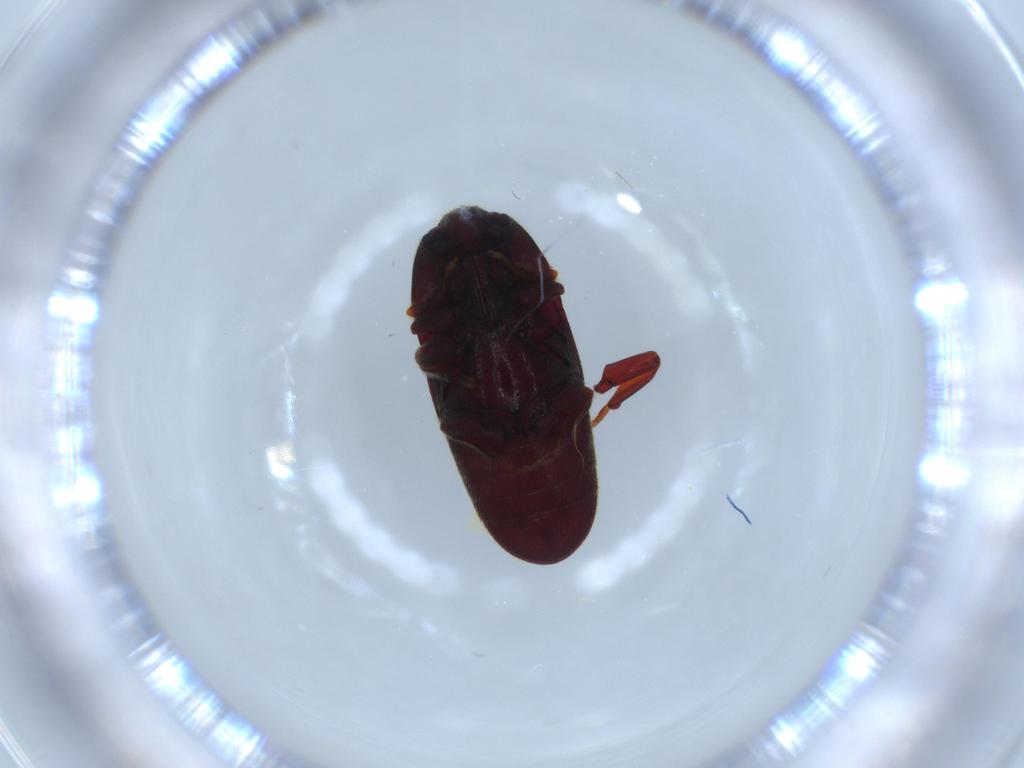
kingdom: Animalia
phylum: Arthropoda
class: Insecta
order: Coleoptera
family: Throscidae
